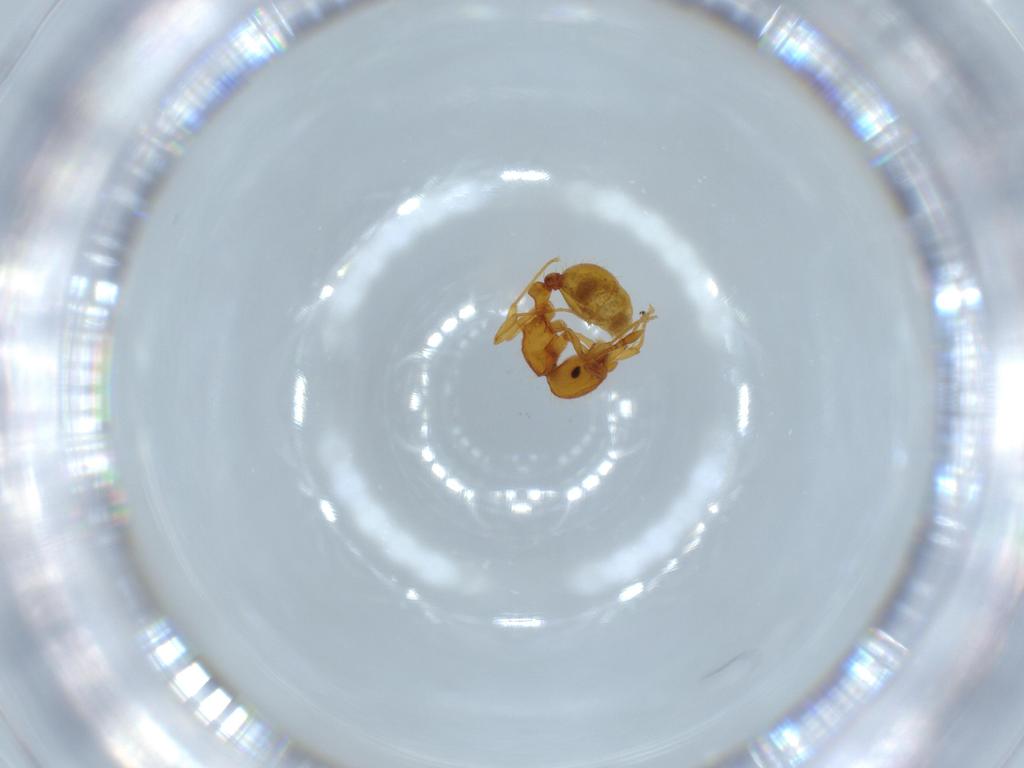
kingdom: Animalia
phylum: Arthropoda
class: Insecta
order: Hymenoptera
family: Formicidae
